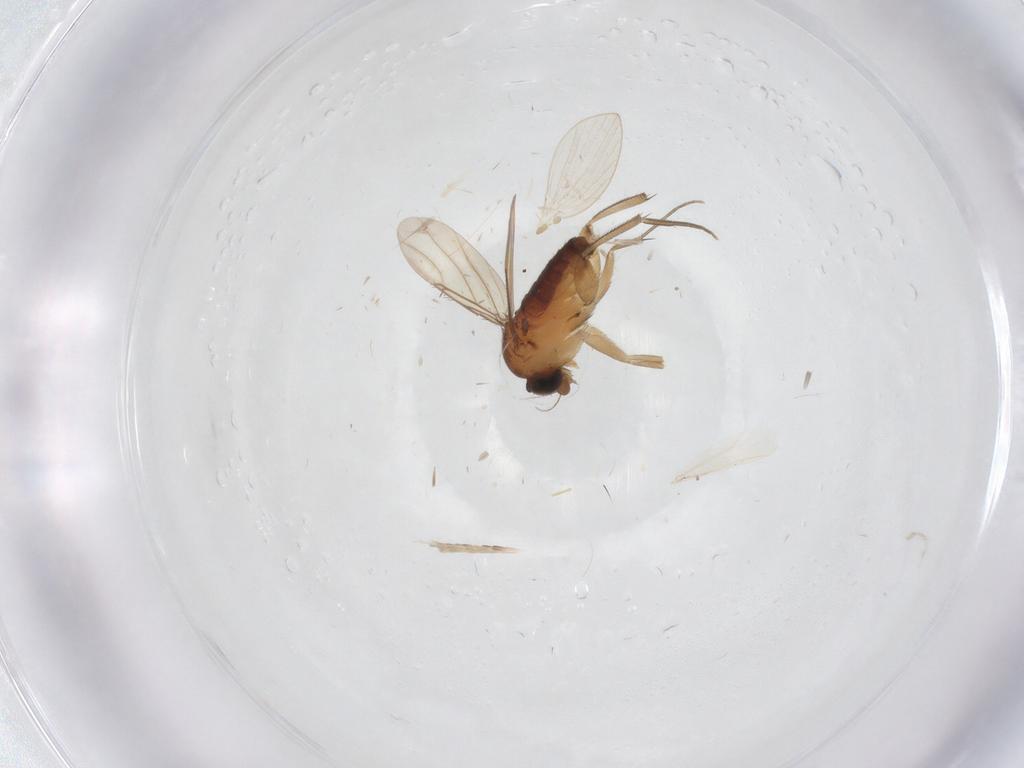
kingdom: Animalia
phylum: Arthropoda
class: Insecta
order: Diptera
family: Phoridae
